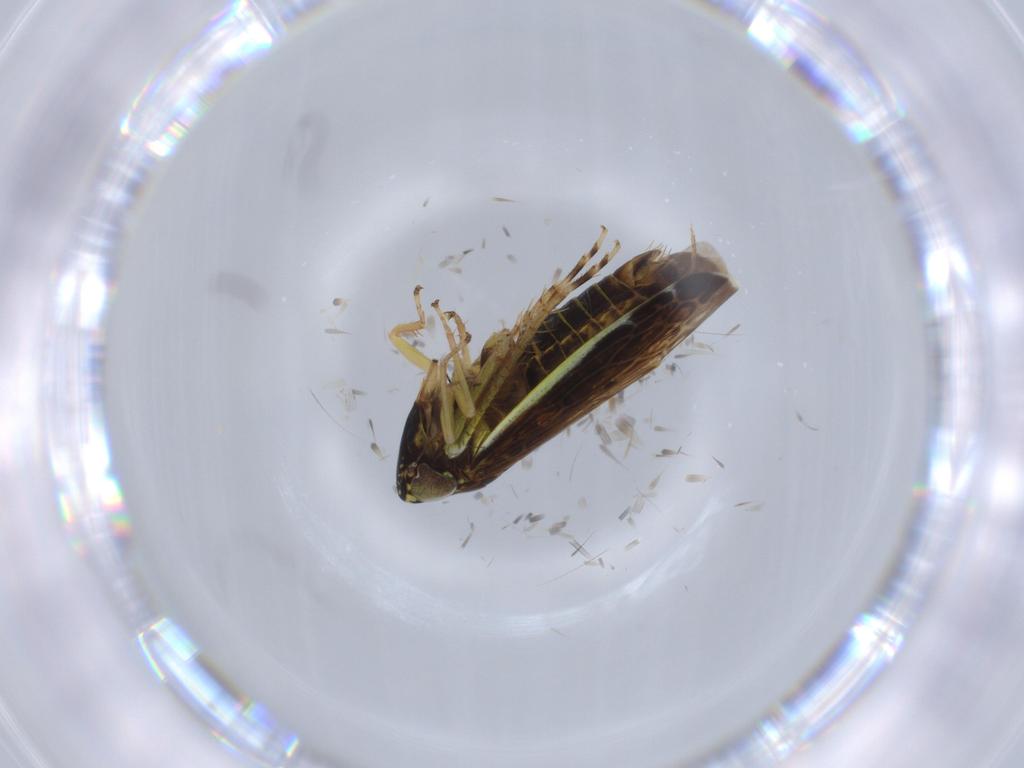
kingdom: Animalia
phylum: Arthropoda
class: Insecta
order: Hemiptera
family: Cicadellidae
